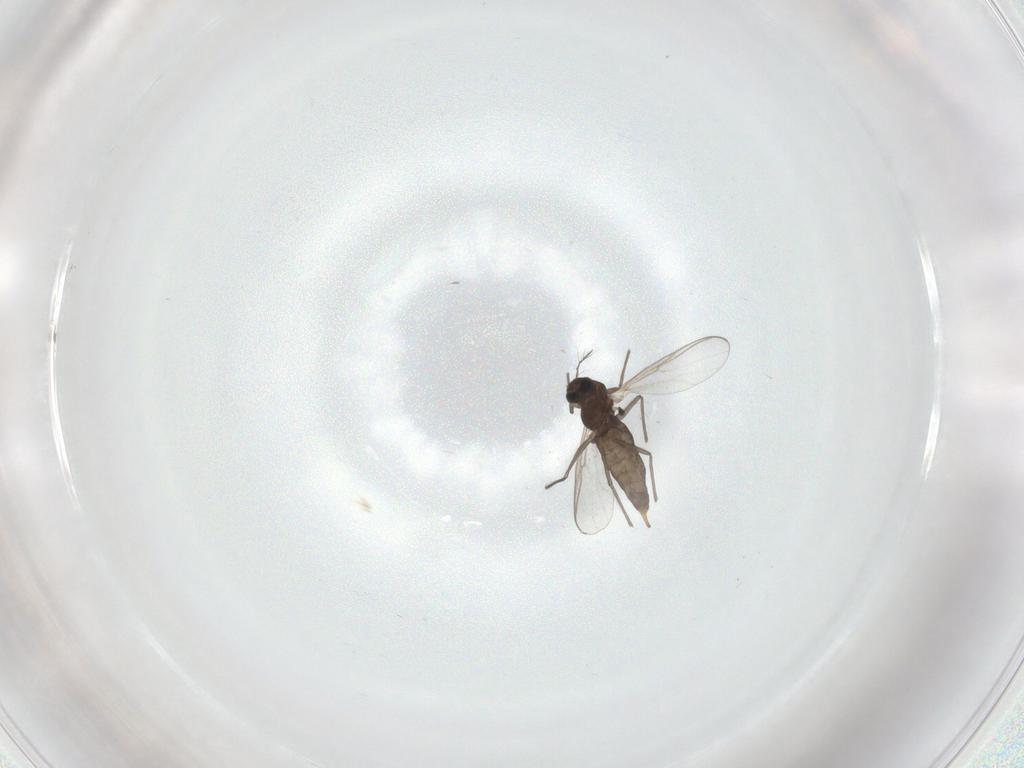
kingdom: Animalia
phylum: Arthropoda
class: Insecta
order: Diptera
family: Chironomidae
